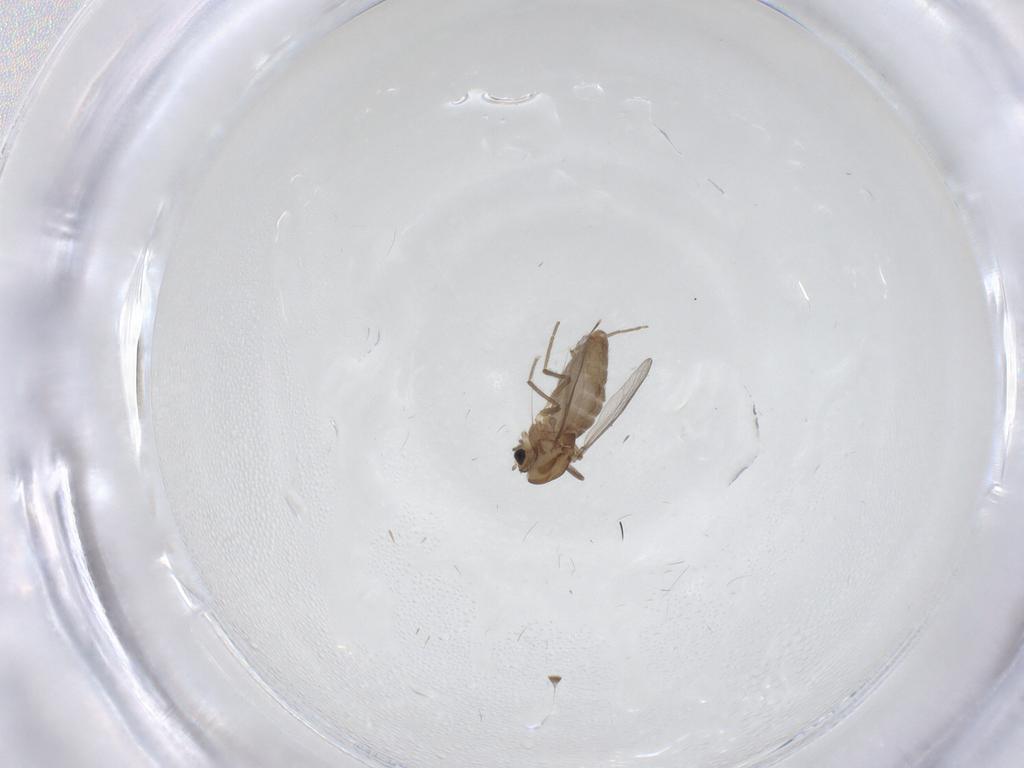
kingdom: Animalia
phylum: Arthropoda
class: Insecta
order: Diptera
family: Chironomidae
